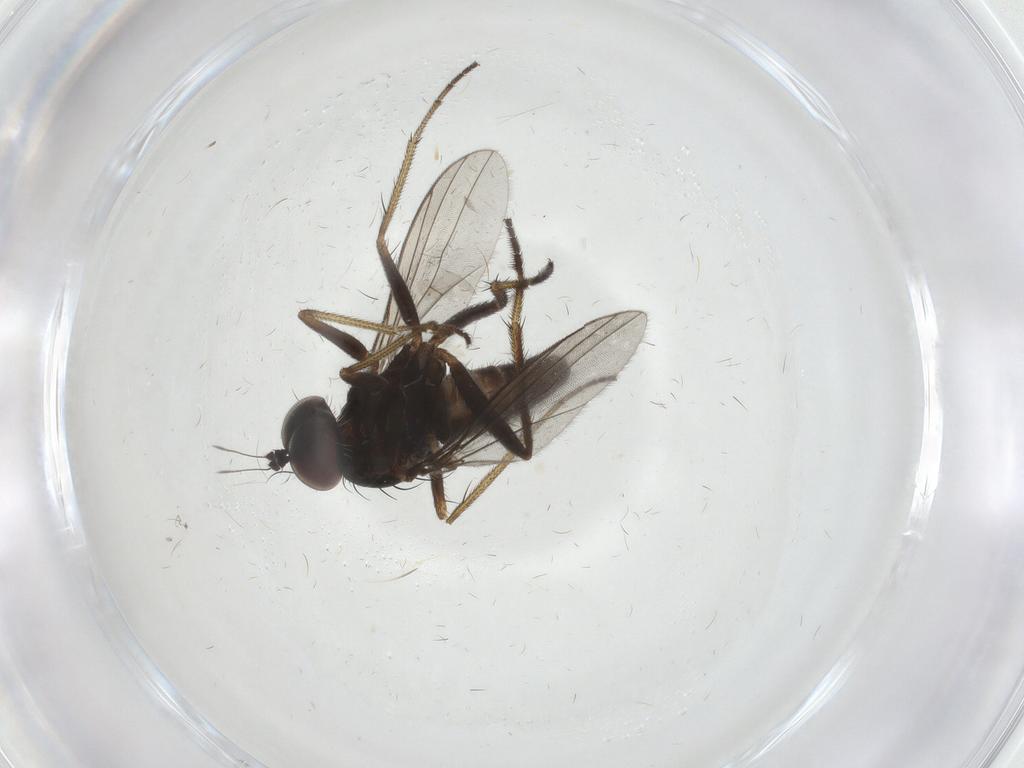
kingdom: Animalia
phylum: Arthropoda
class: Insecta
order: Diptera
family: Dolichopodidae
